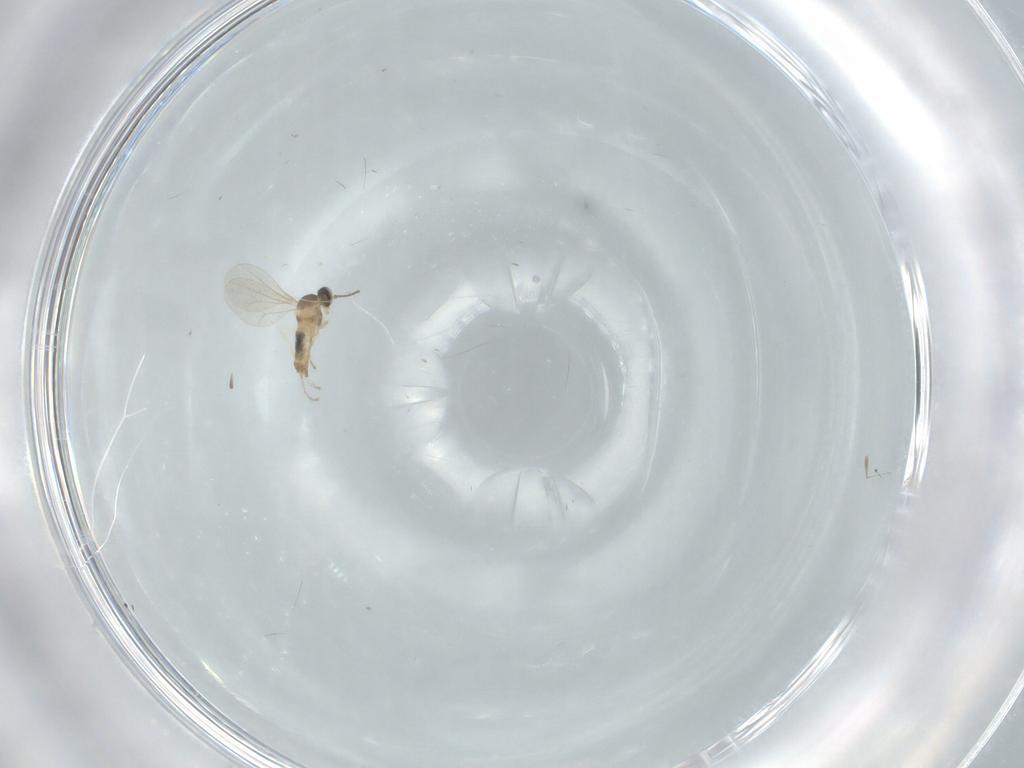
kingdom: Animalia
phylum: Arthropoda
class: Insecta
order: Diptera
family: Cecidomyiidae
